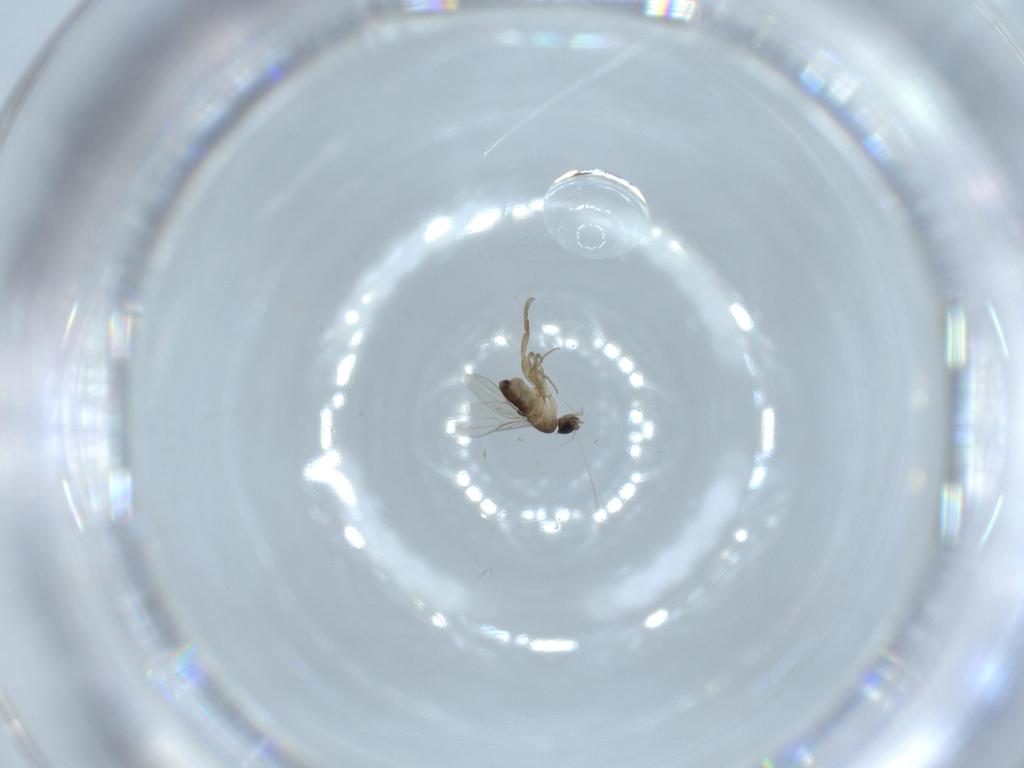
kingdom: Animalia
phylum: Arthropoda
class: Insecta
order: Diptera
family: Phoridae
